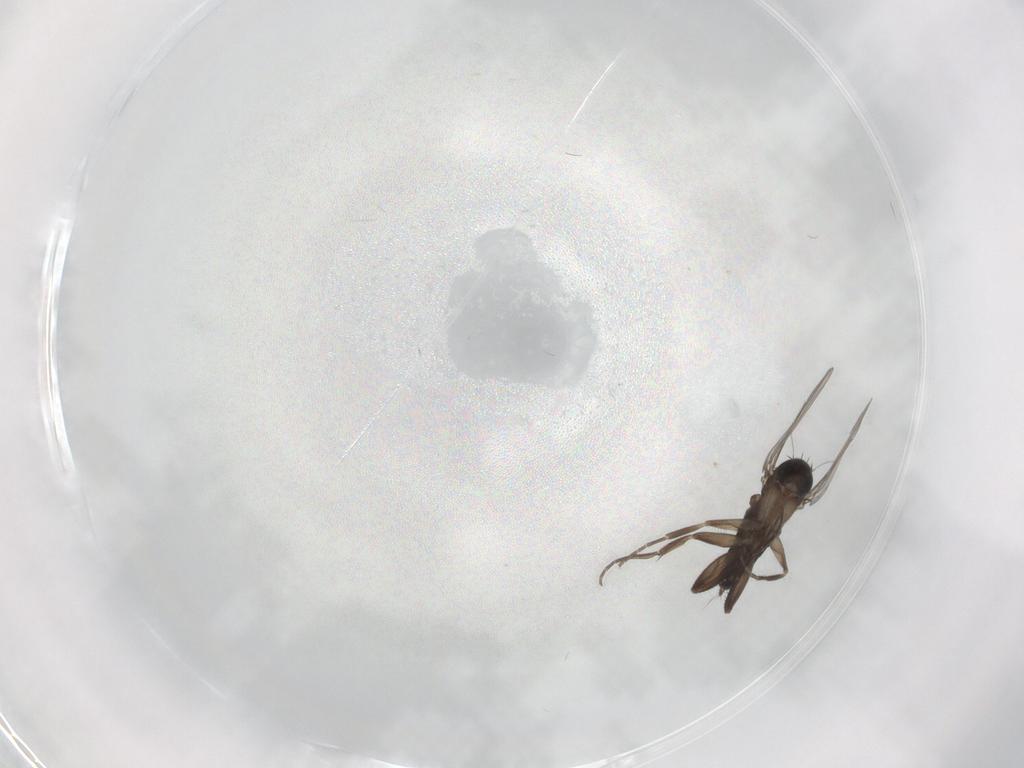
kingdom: Animalia
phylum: Arthropoda
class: Insecta
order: Diptera
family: Phoridae
